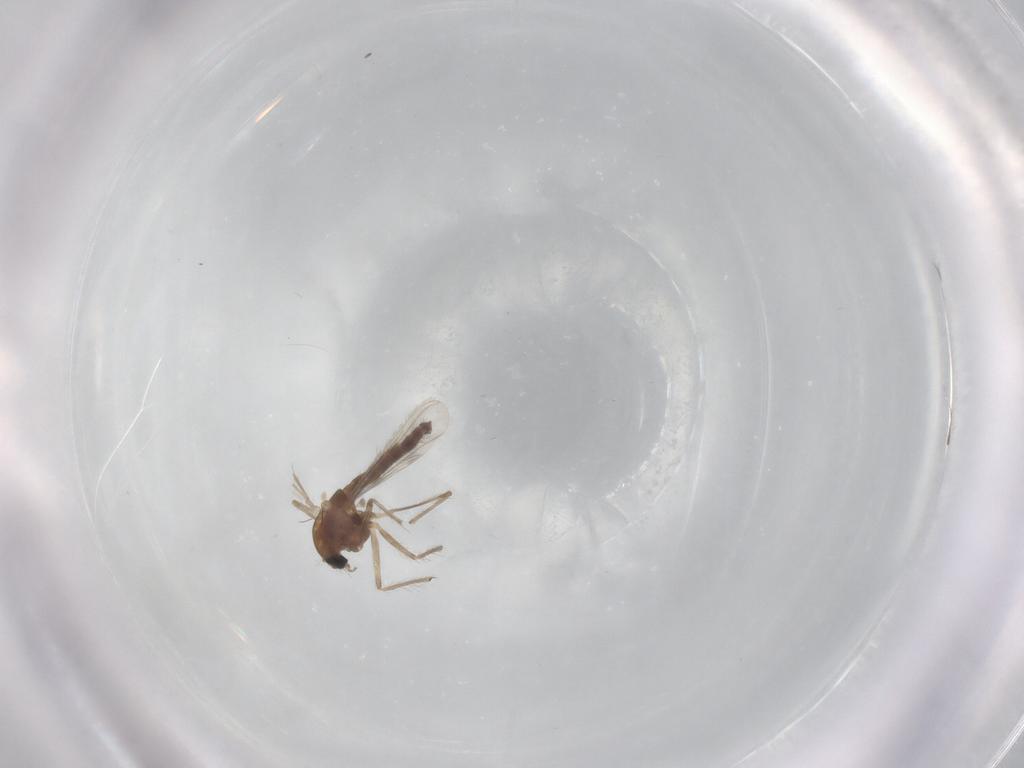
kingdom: Animalia
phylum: Arthropoda
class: Insecta
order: Diptera
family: Chironomidae
